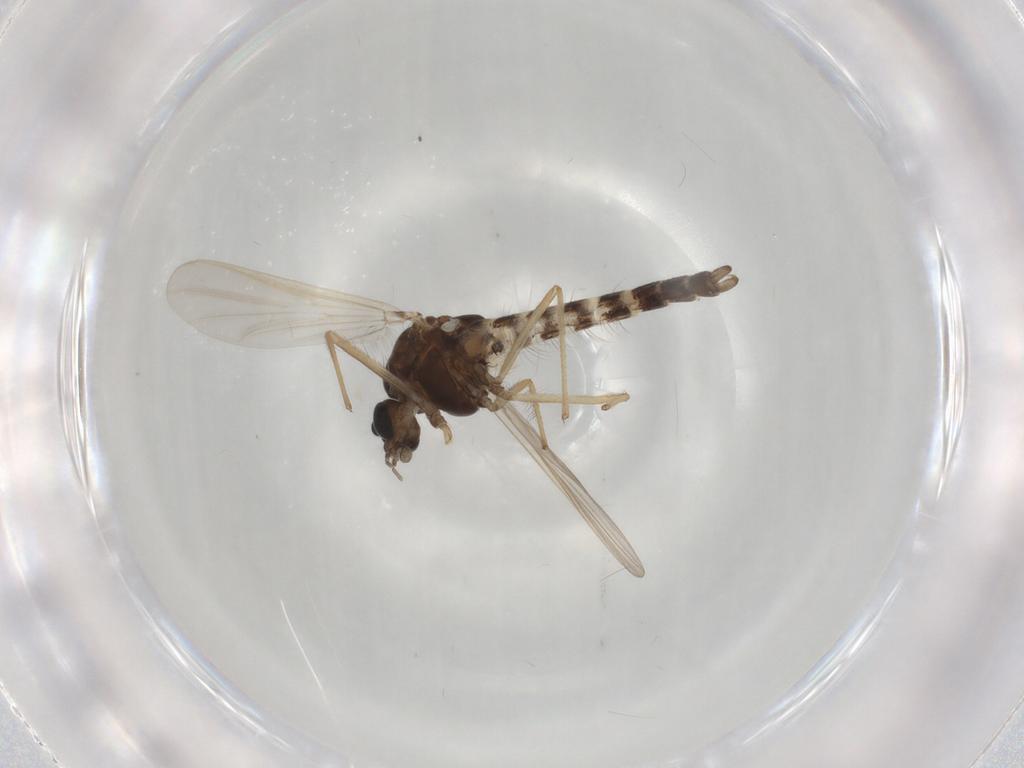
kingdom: Animalia
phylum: Arthropoda
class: Insecta
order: Diptera
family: Chironomidae
